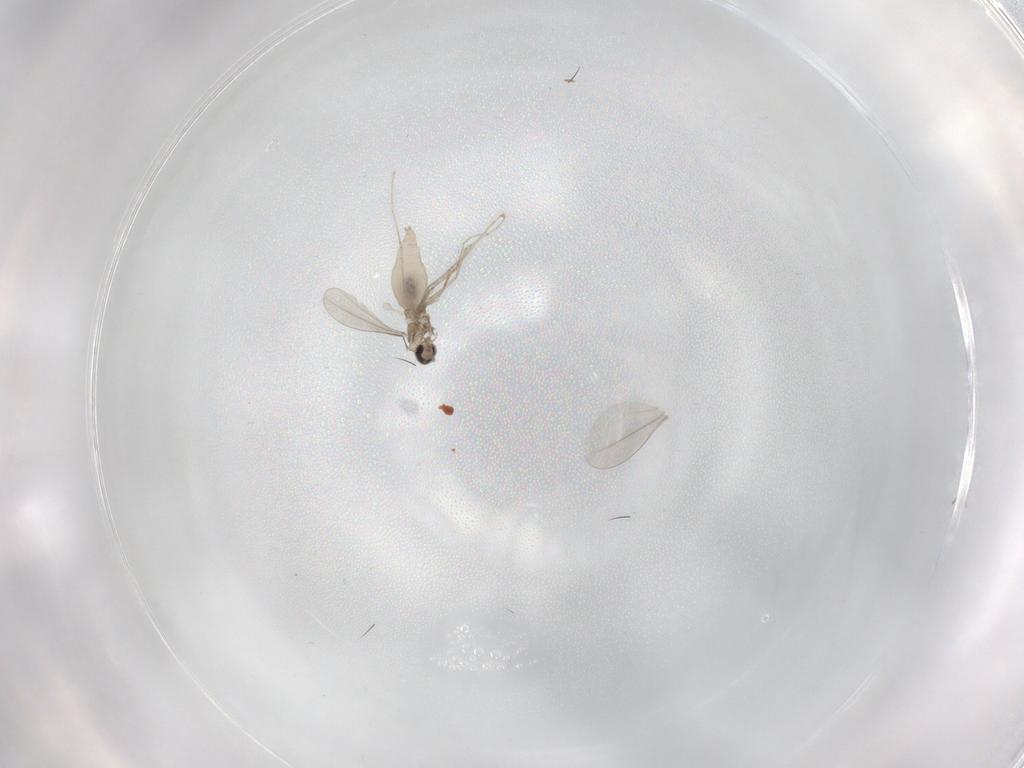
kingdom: Animalia
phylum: Arthropoda
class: Insecta
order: Diptera
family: Cecidomyiidae
